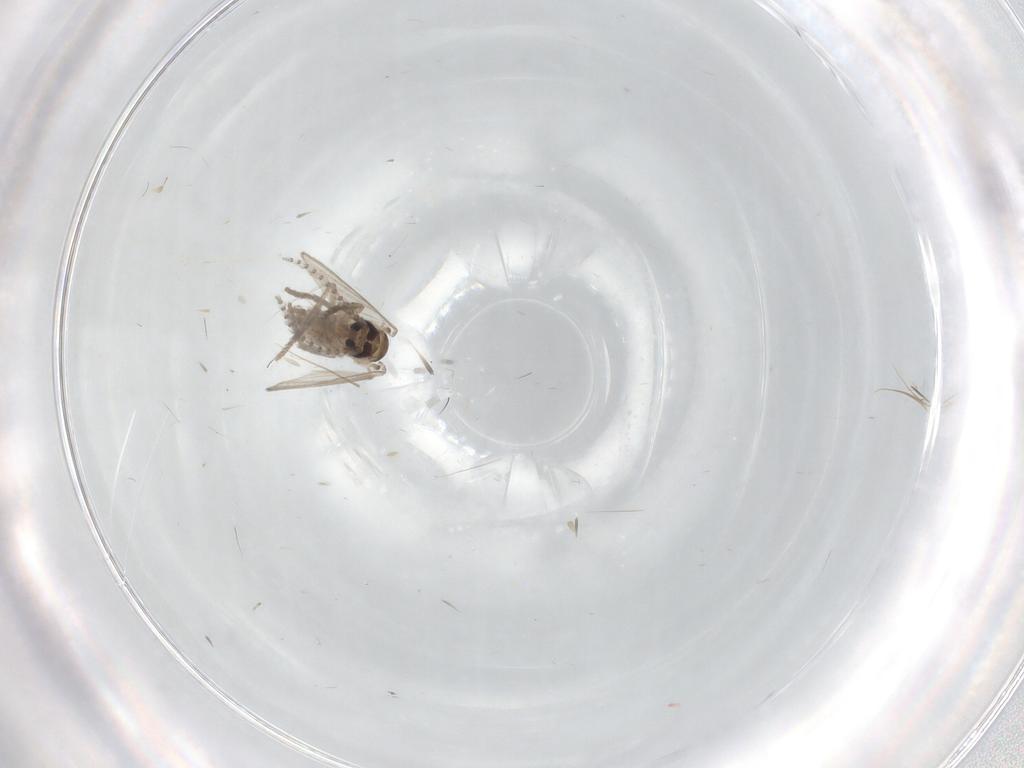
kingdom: Animalia
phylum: Arthropoda
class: Insecta
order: Diptera
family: Psychodidae
